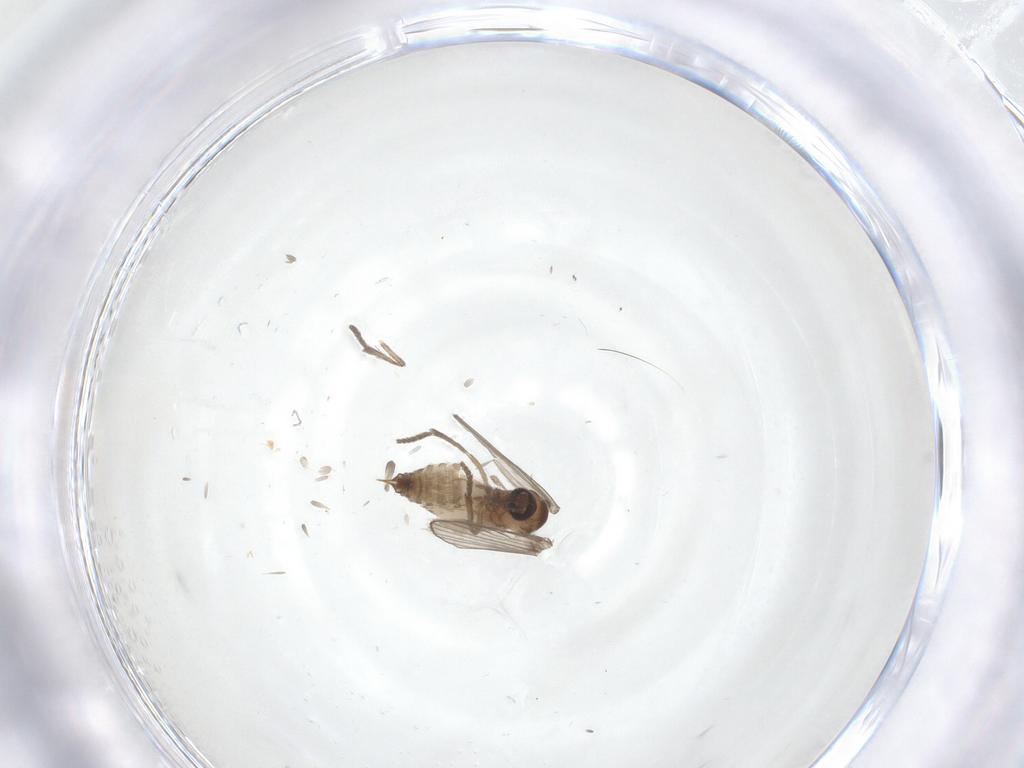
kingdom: Animalia
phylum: Arthropoda
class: Insecta
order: Diptera
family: Psychodidae
